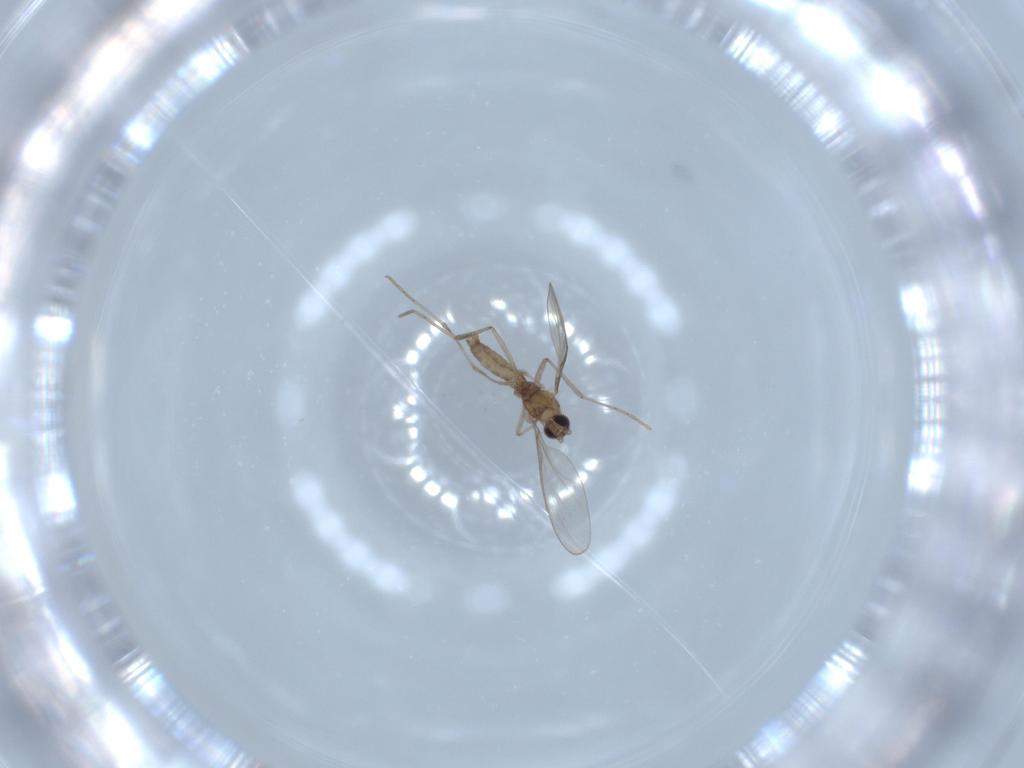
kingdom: Animalia
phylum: Arthropoda
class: Insecta
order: Diptera
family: Cecidomyiidae
